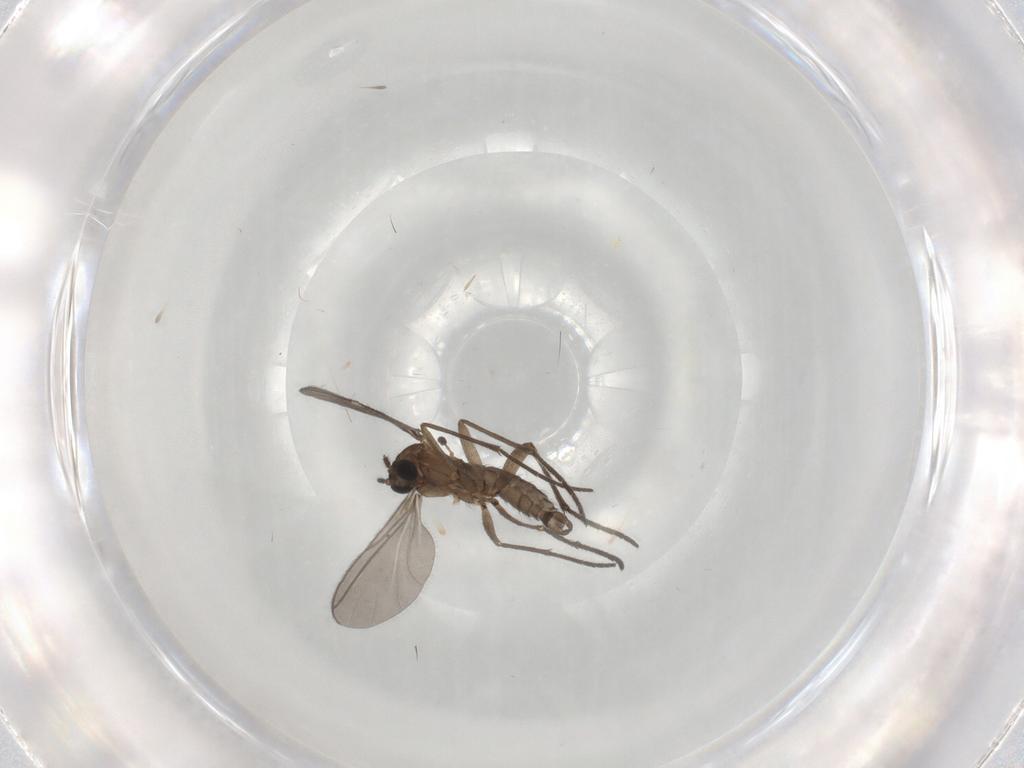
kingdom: Animalia
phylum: Arthropoda
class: Insecta
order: Diptera
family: Sciaridae
